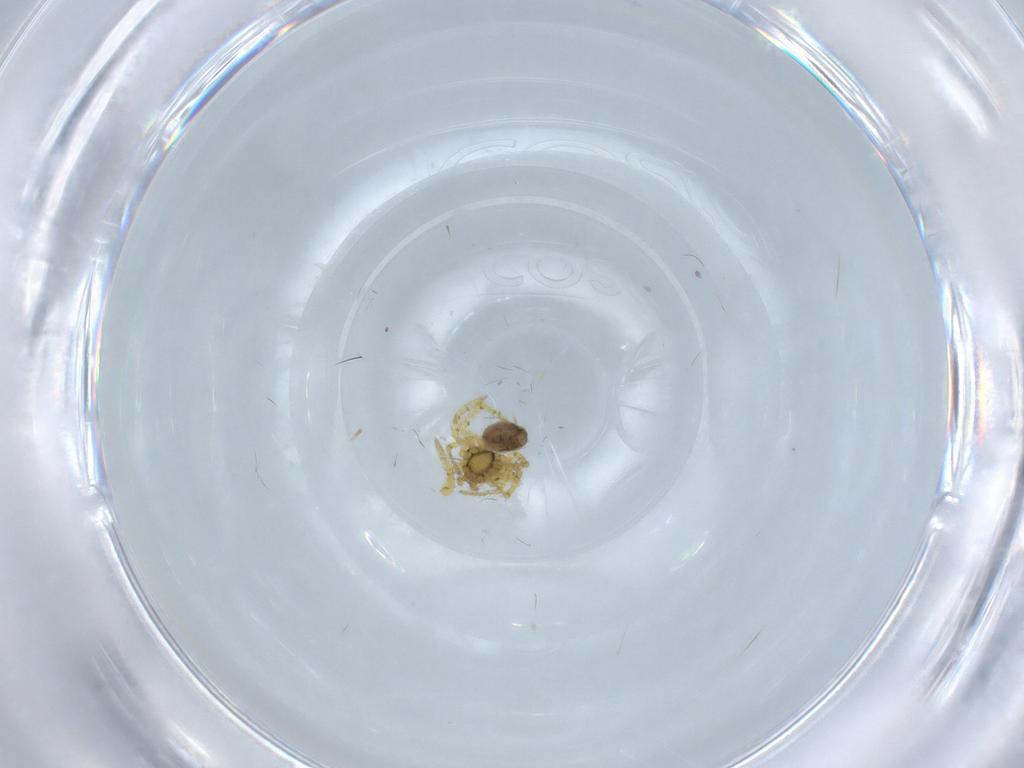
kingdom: Animalia
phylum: Arthropoda
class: Arachnida
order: Araneae
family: Theridiidae
